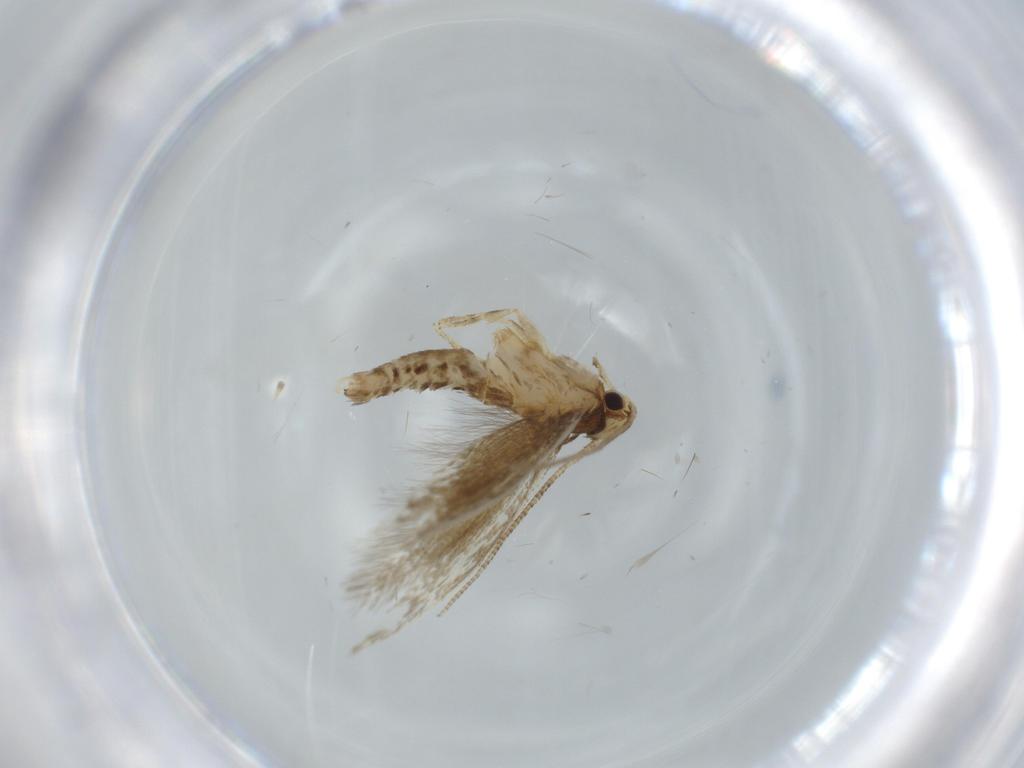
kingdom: Animalia
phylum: Arthropoda
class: Insecta
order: Lepidoptera
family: Tineidae
